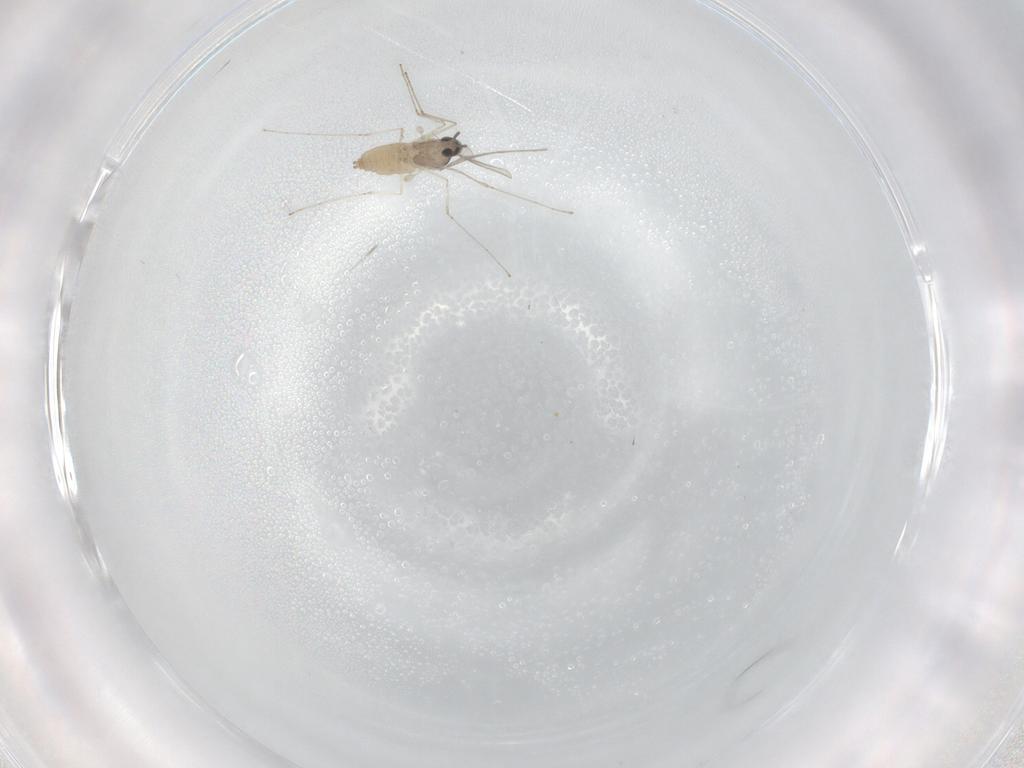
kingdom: Animalia
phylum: Arthropoda
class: Insecta
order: Diptera
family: Cecidomyiidae
